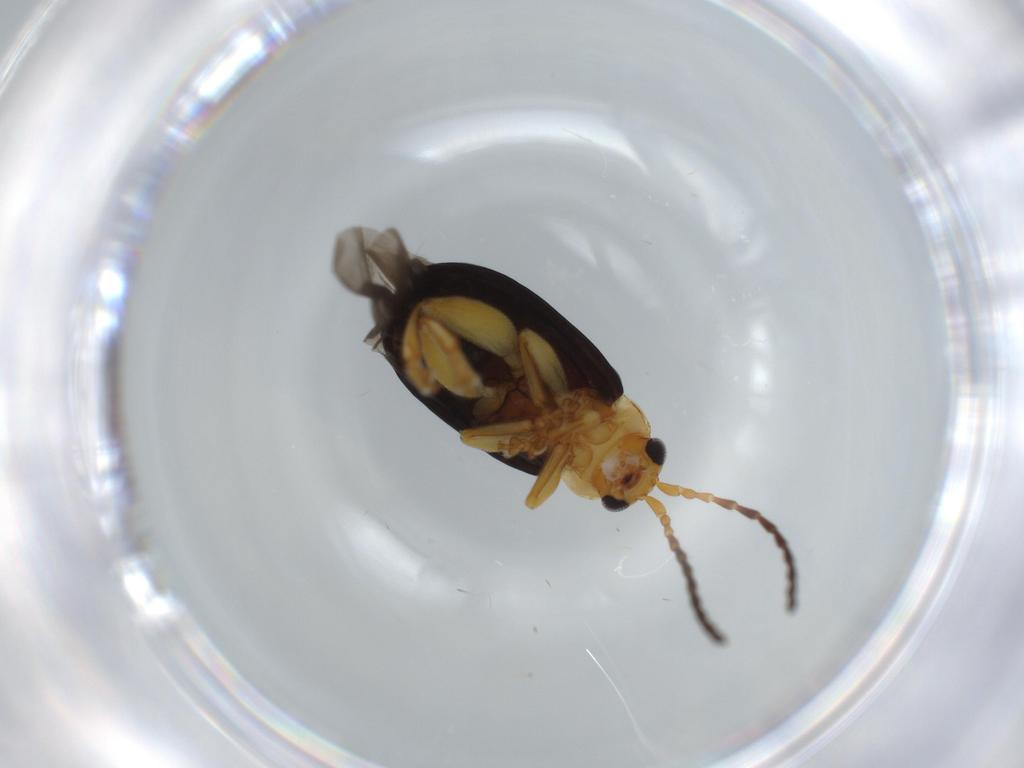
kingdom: Animalia
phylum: Arthropoda
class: Insecta
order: Coleoptera
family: Chrysomelidae
